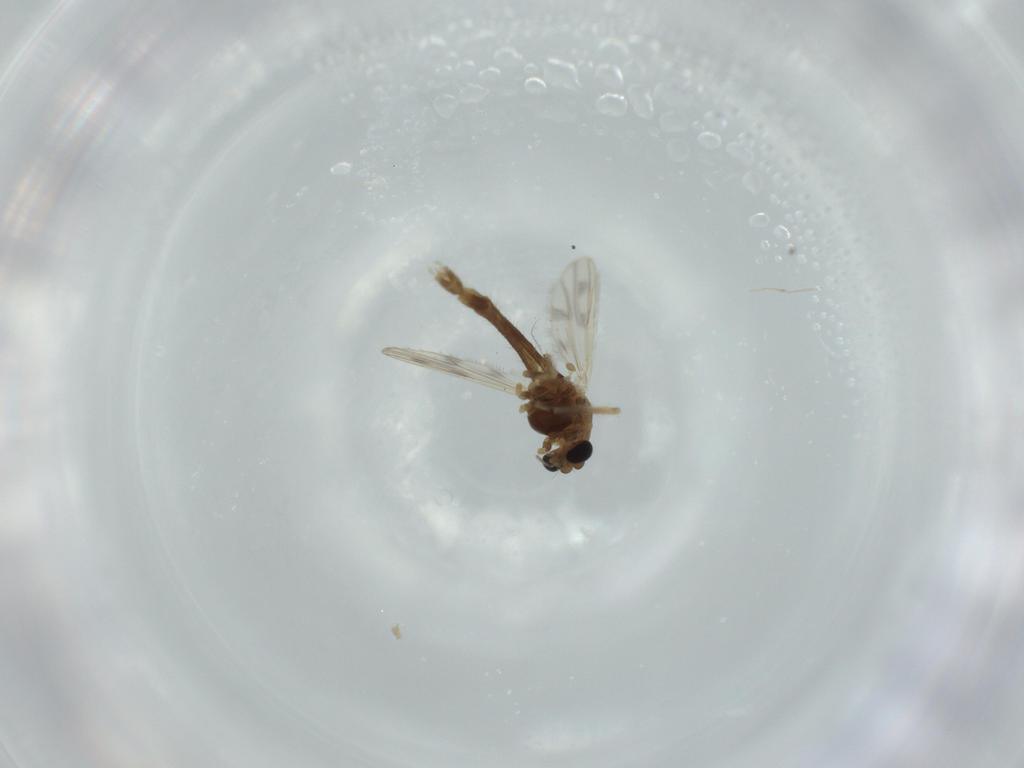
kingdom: Animalia
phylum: Arthropoda
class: Insecta
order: Diptera
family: Chironomidae
